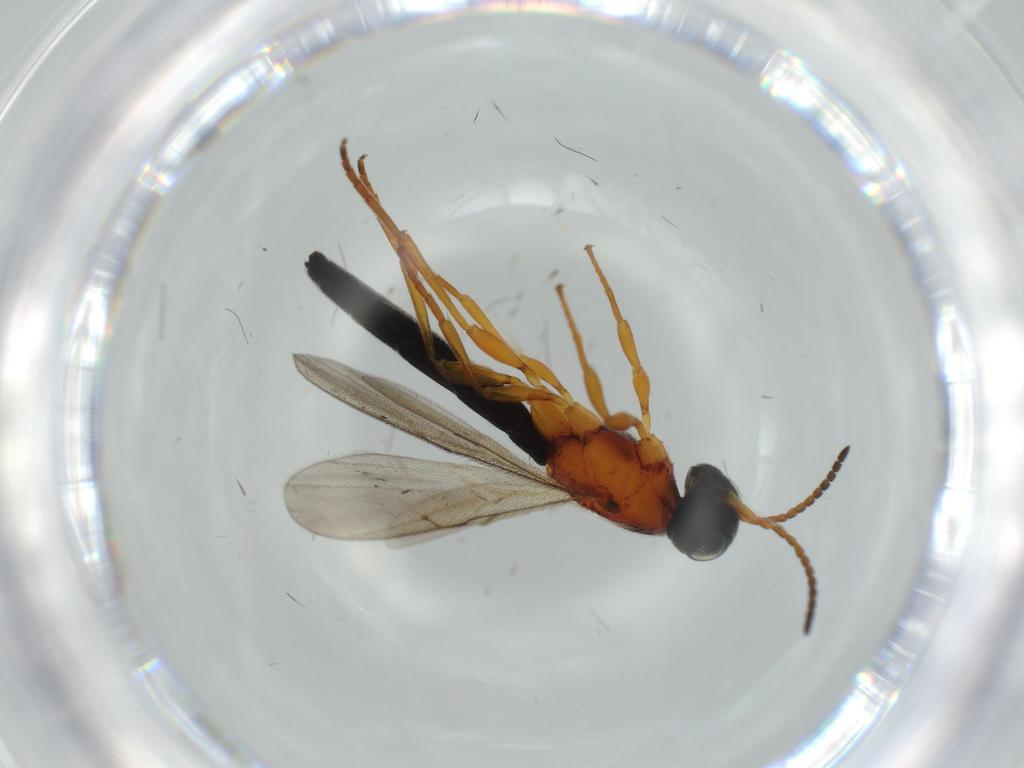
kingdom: Animalia
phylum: Arthropoda
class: Insecta
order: Hymenoptera
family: Scelionidae
